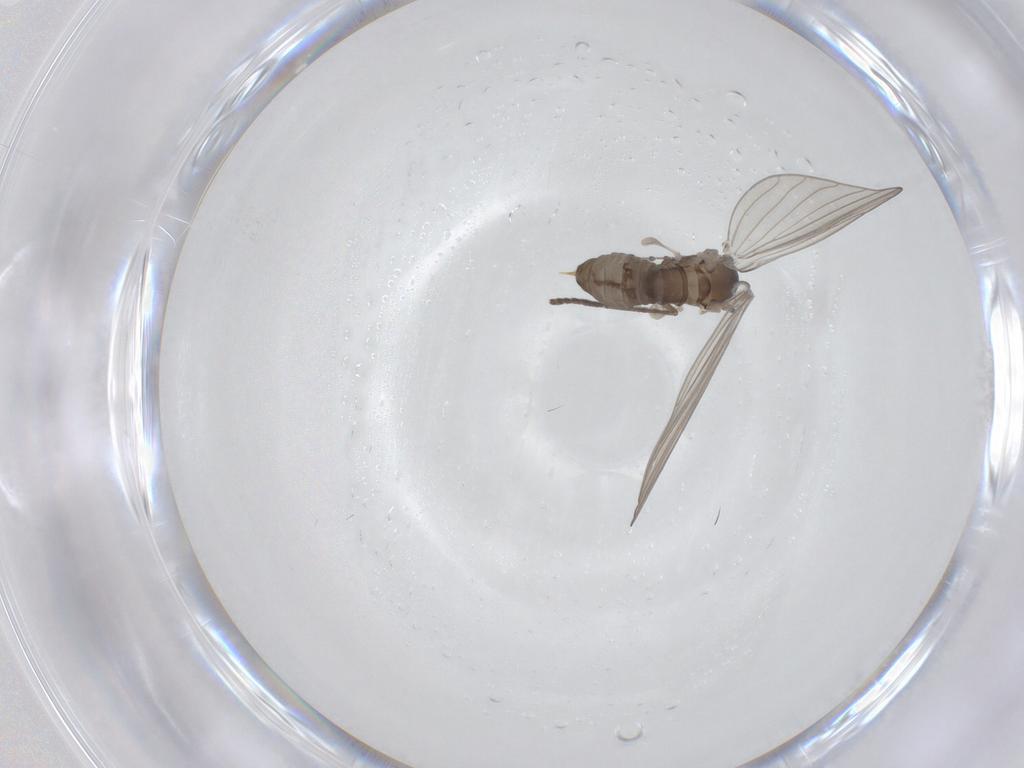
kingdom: Animalia
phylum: Arthropoda
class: Insecta
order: Diptera
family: Psychodidae
